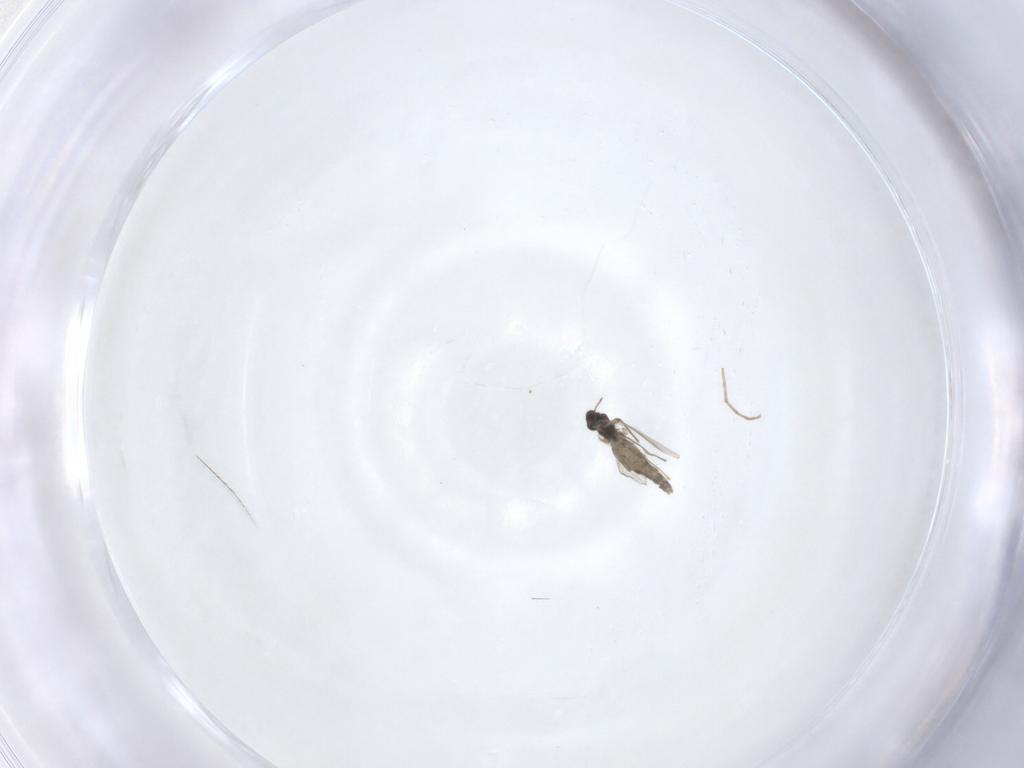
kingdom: Animalia
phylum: Arthropoda
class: Insecta
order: Diptera
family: Chironomidae
